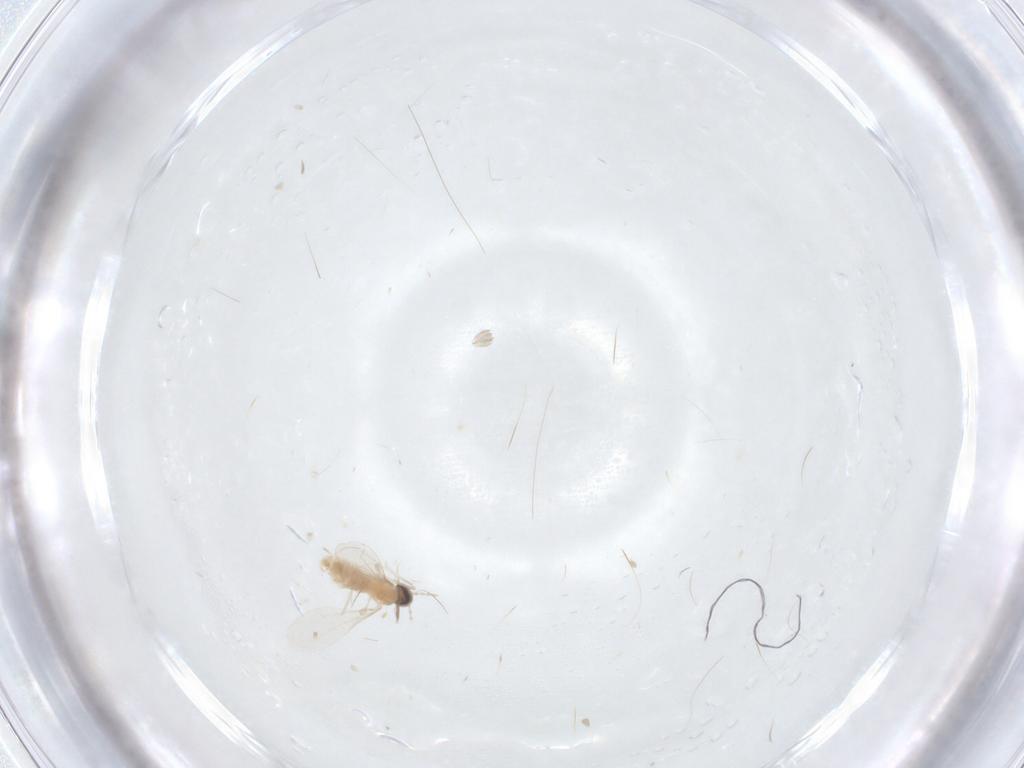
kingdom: Animalia
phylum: Arthropoda
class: Insecta
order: Diptera
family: Cecidomyiidae
